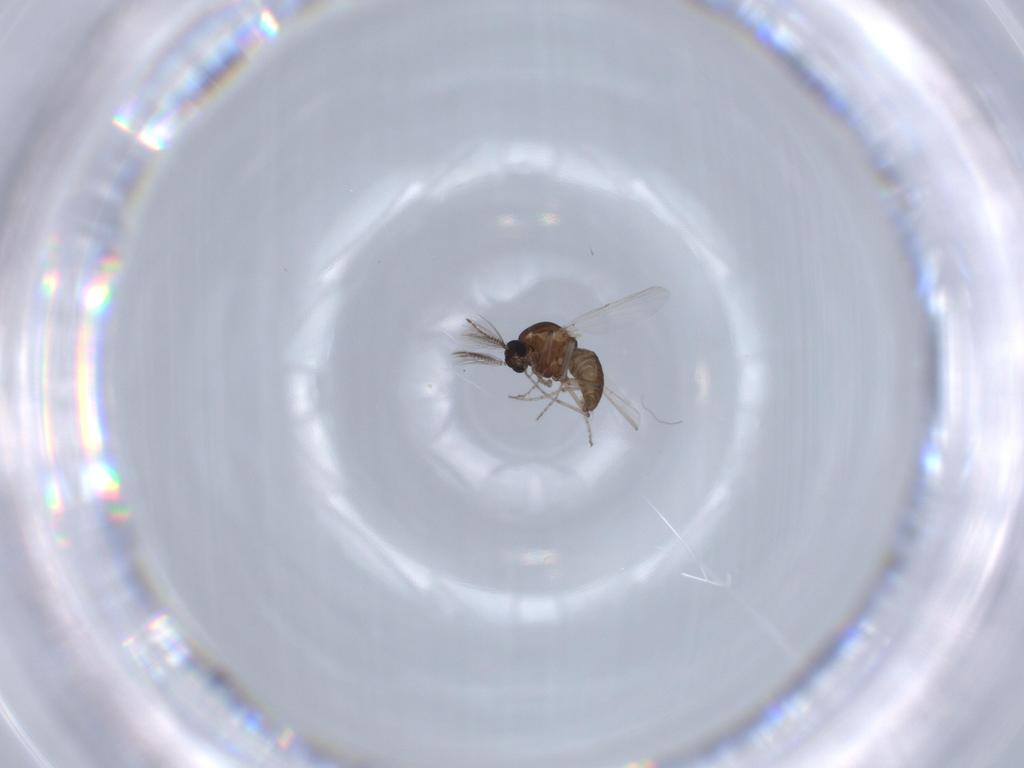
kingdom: Animalia
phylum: Arthropoda
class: Insecta
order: Diptera
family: Ceratopogonidae
